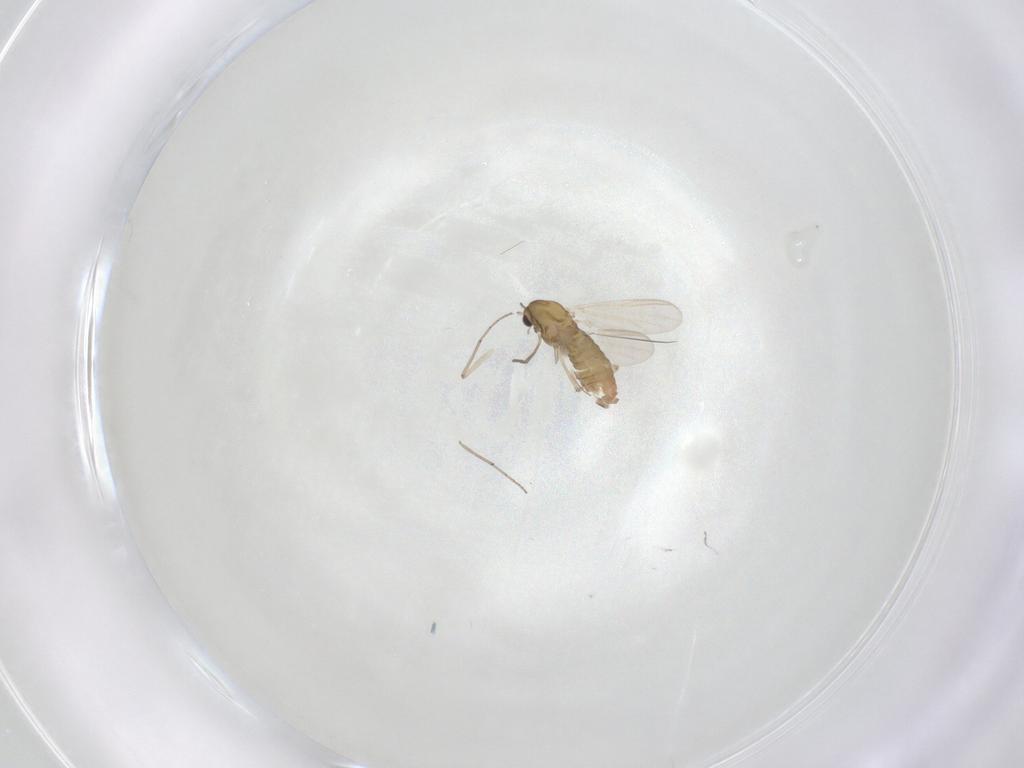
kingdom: Animalia
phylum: Arthropoda
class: Insecta
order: Diptera
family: Chironomidae
